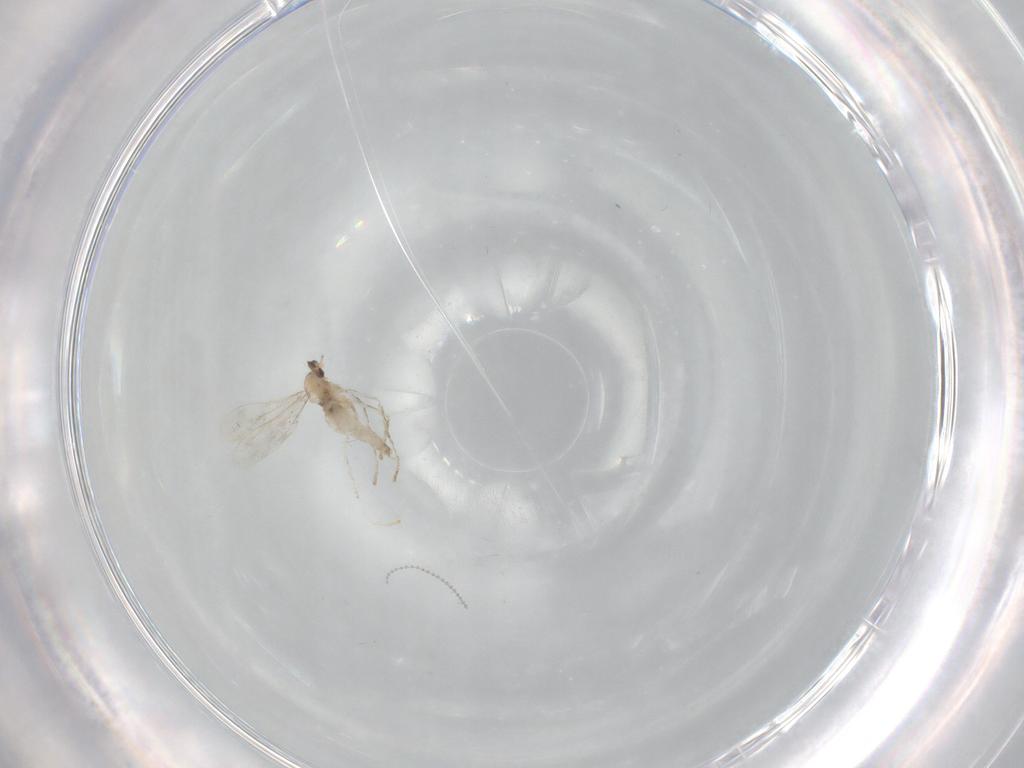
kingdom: Animalia
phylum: Arthropoda
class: Insecta
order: Diptera
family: Cecidomyiidae
